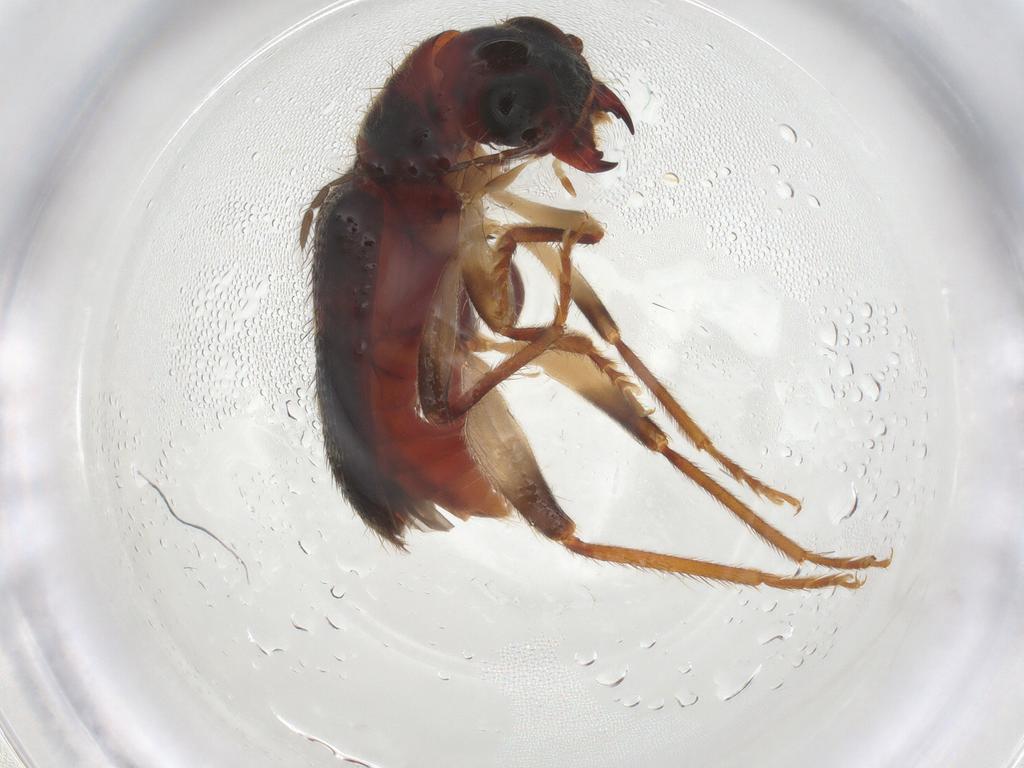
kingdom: Animalia
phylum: Arthropoda
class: Insecta
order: Coleoptera
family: Cleridae
